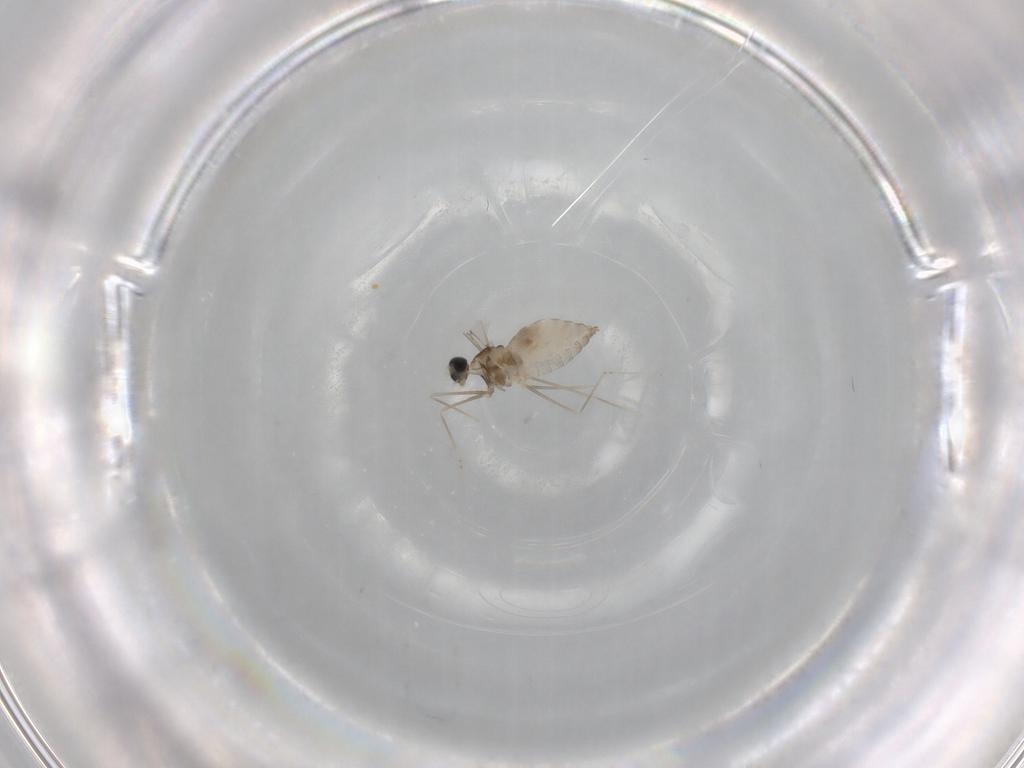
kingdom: Animalia
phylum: Arthropoda
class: Insecta
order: Diptera
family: Cecidomyiidae
